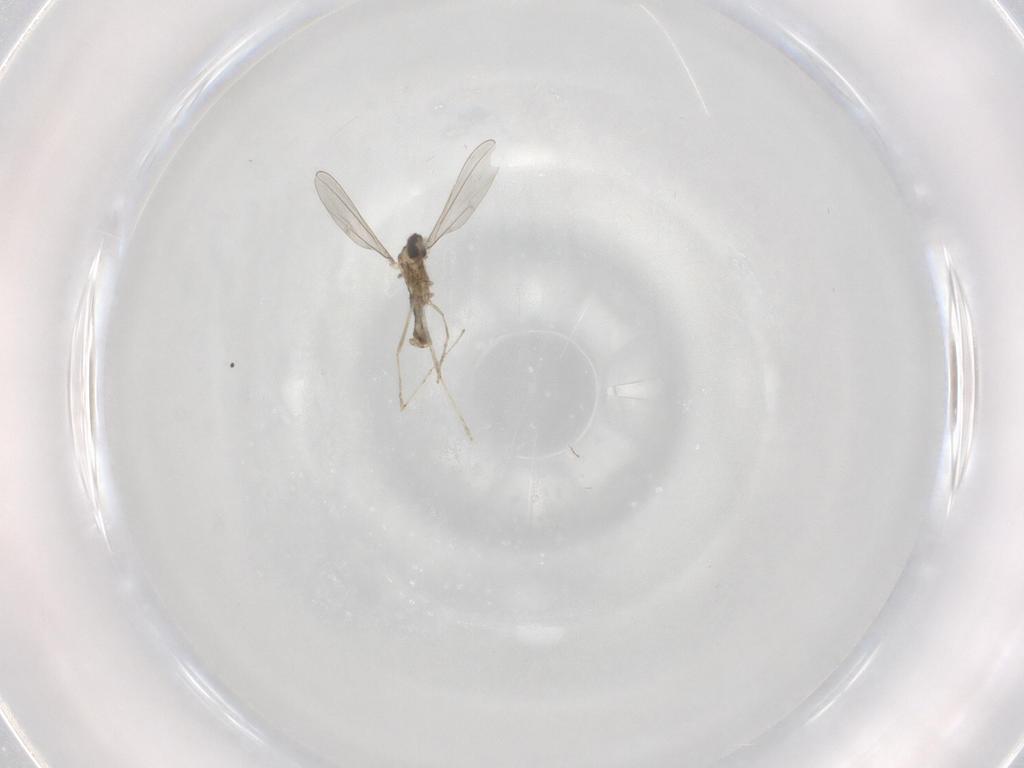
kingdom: Animalia
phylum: Arthropoda
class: Insecta
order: Diptera
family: Cecidomyiidae
